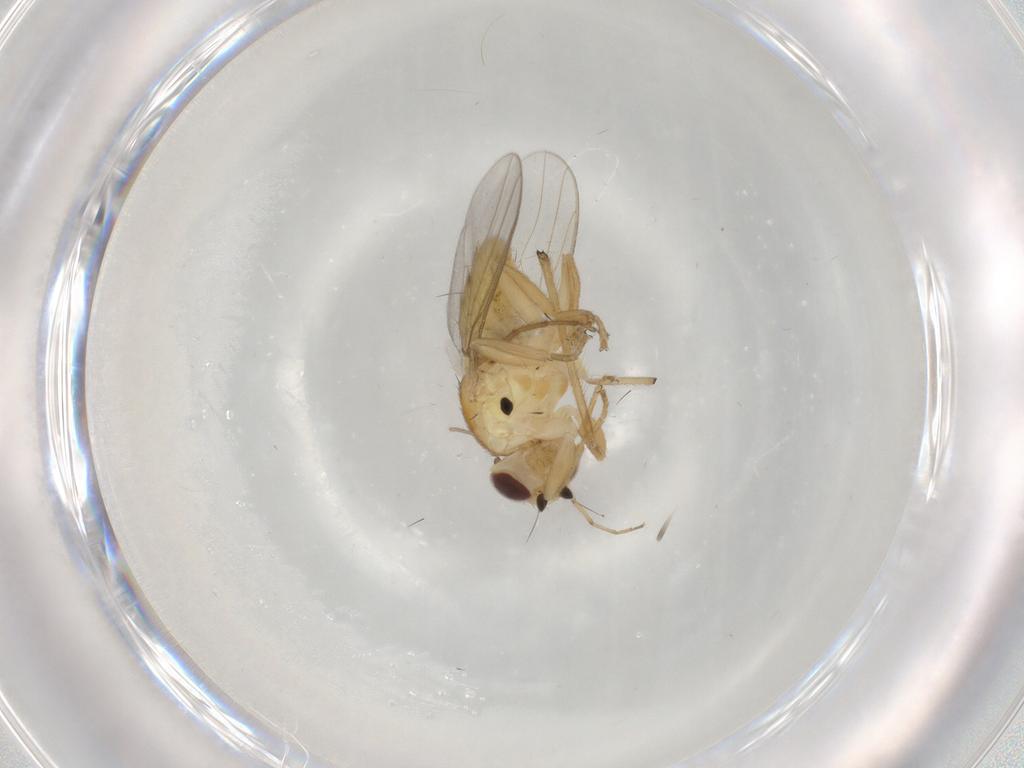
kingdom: Animalia
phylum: Arthropoda
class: Insecta
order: Diptera
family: Chloropidae
